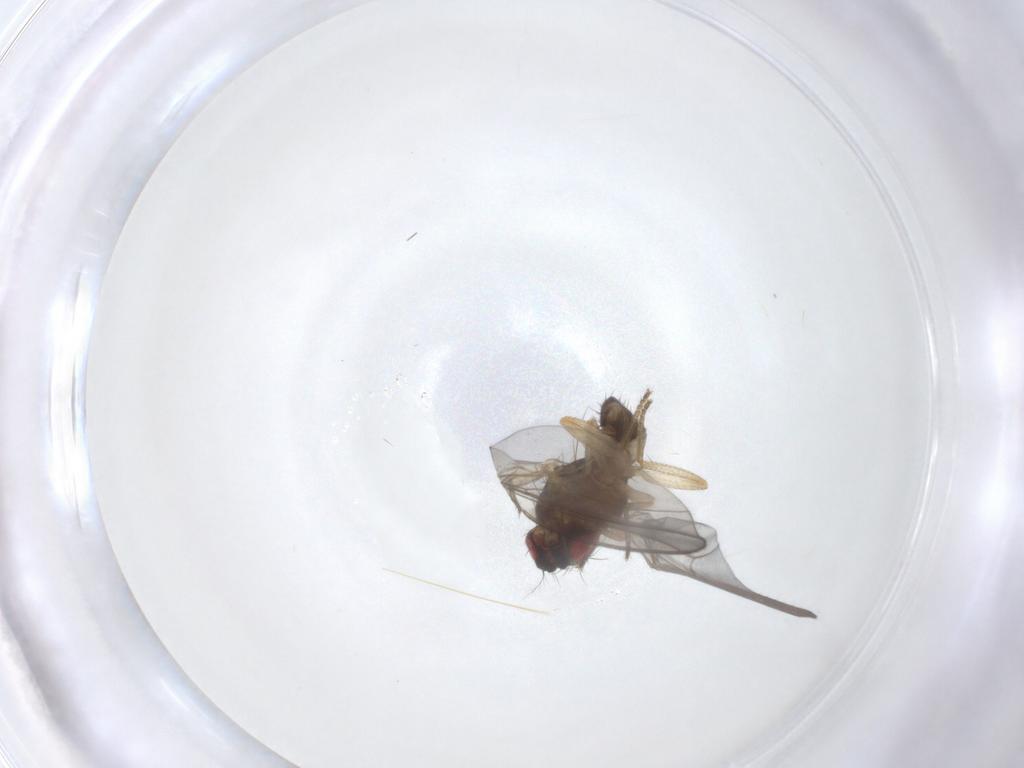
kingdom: Animalia
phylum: Arthropoda
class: Insecta
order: Diptera
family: Drosophilidae
